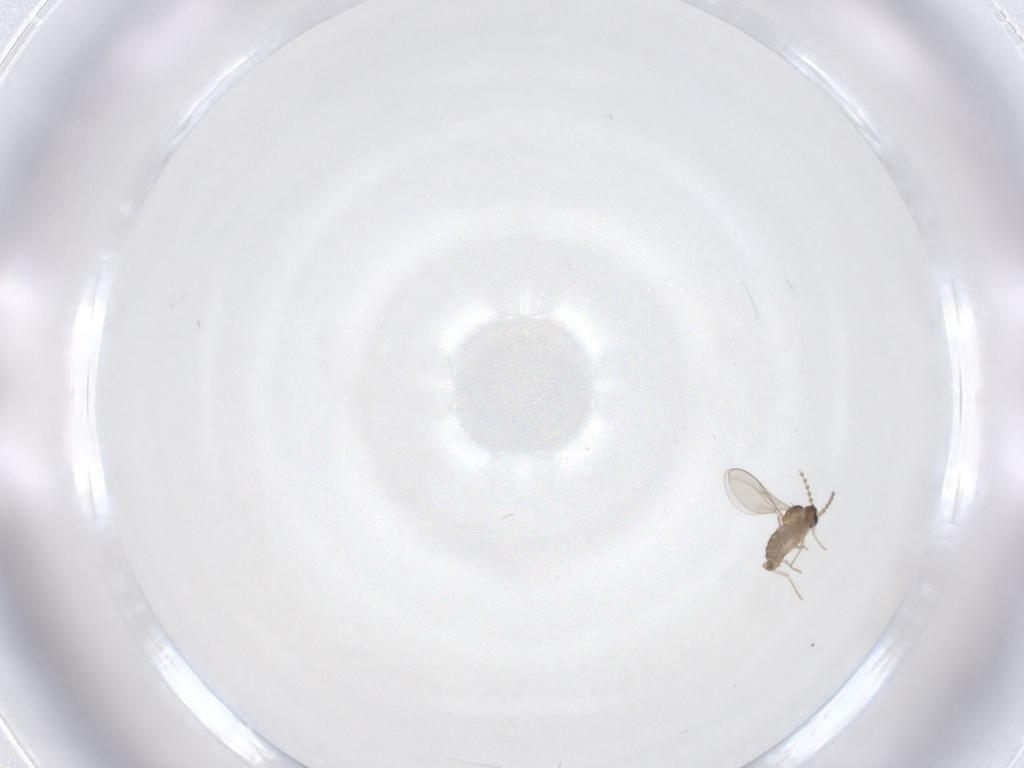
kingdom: Animalia
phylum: Arthropoda
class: Insecta
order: Diptera
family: Cecidomyiidae
